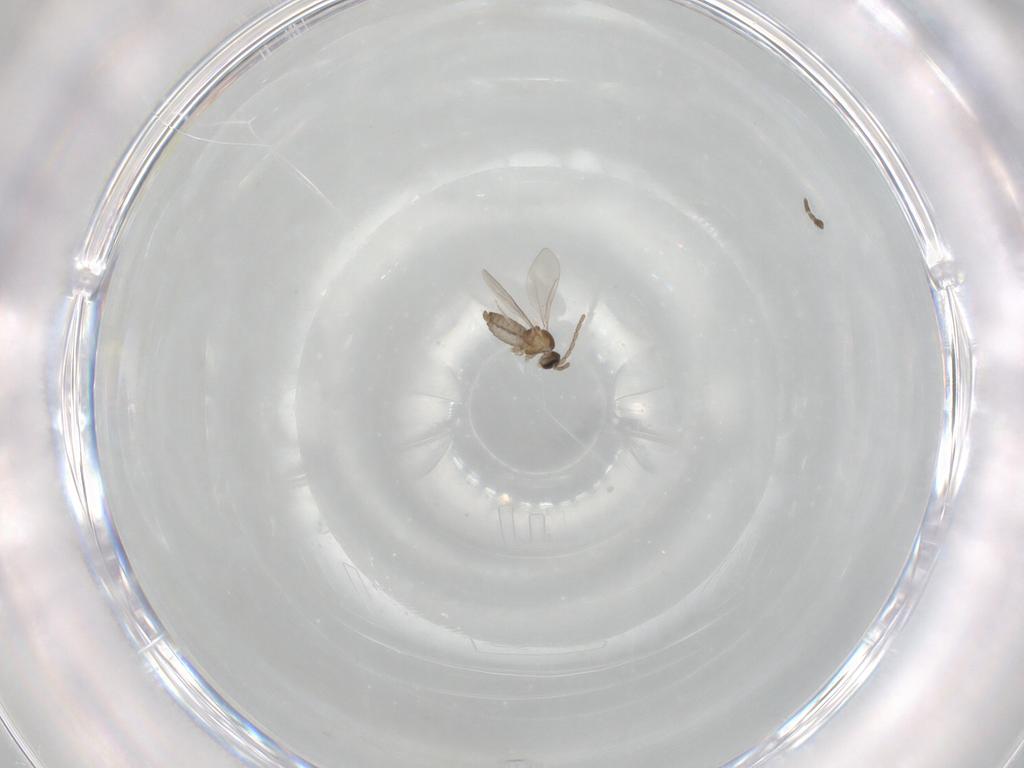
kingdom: Animalia
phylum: Arthropoda
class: Insecta
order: Diptera
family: Cecidomyiidae
